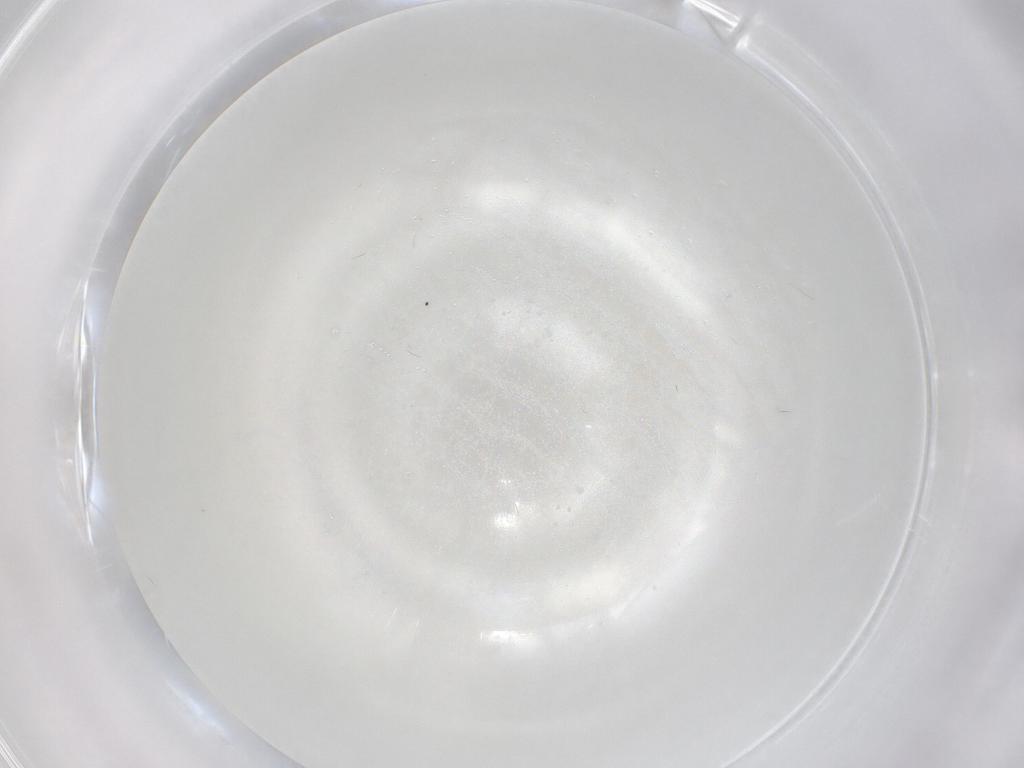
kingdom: Animalia
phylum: Arthropoda
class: Insecta
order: Diptera
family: Cecidomyiidae
